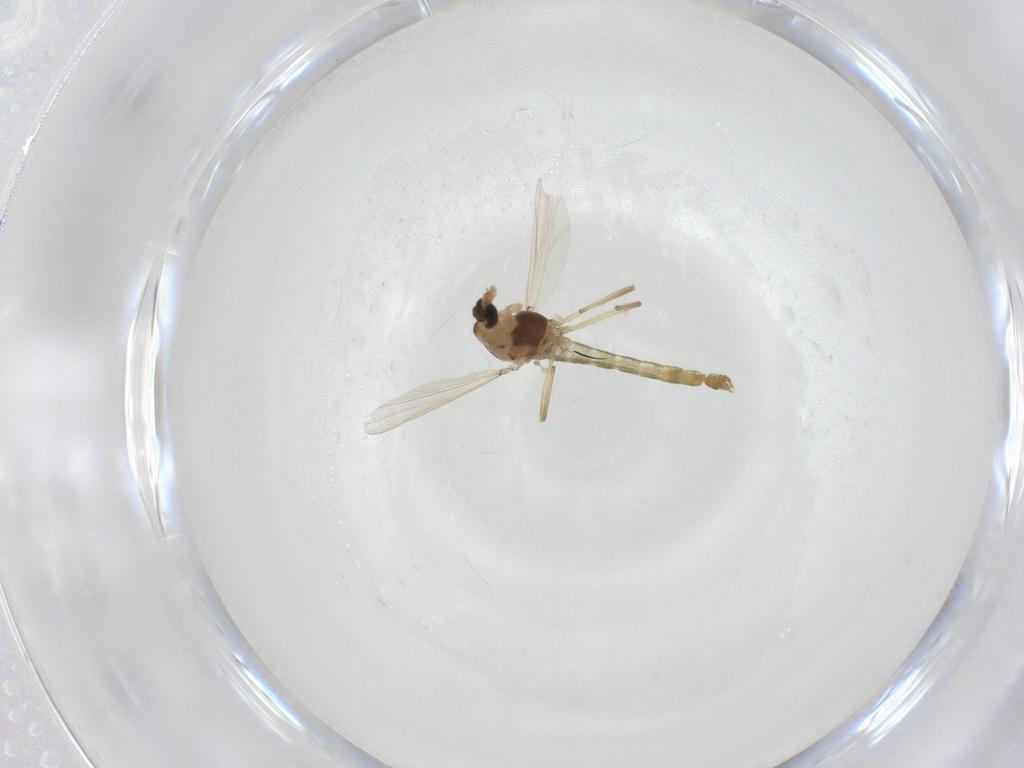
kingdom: Animalia
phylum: Arthropoda
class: Insecta
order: Diptera
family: Chironomidae
